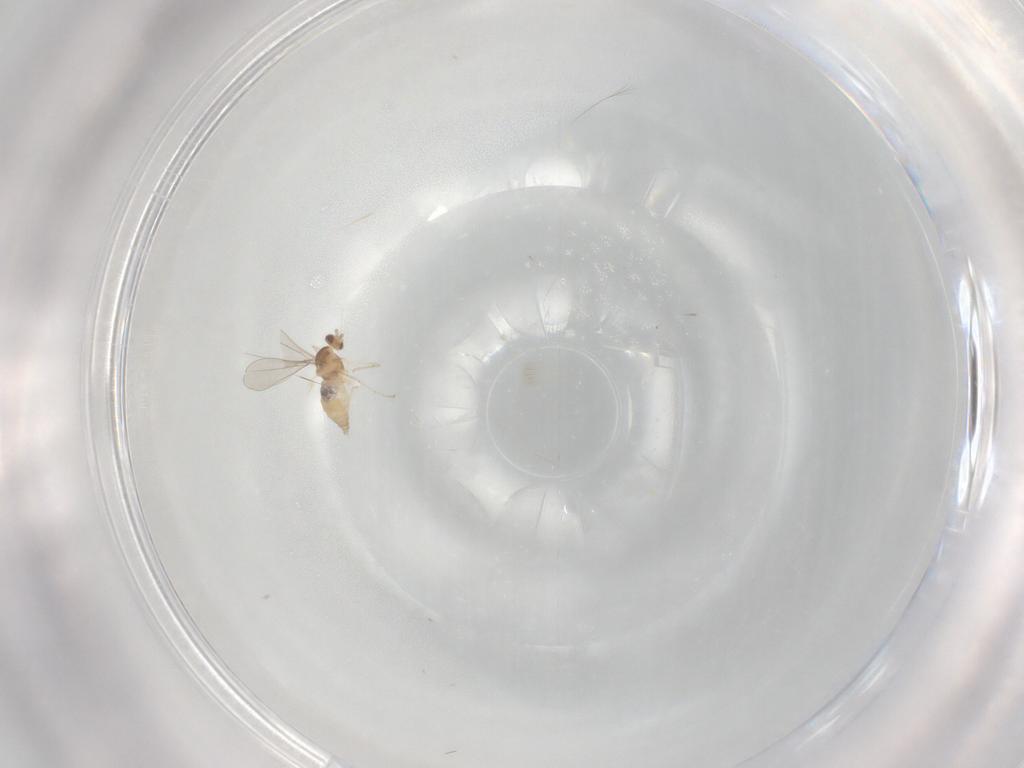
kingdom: Animalia
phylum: Arthropoda
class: Insecta
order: Diptera
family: Cecidomyiidae
